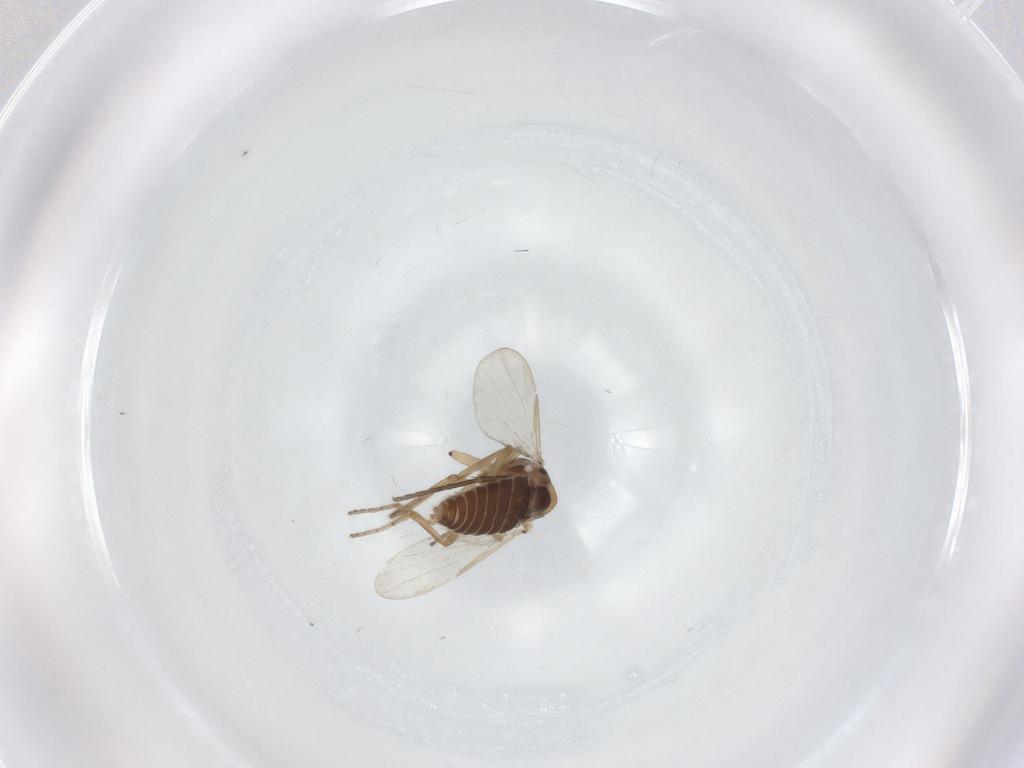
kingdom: Animalia
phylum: Arthropoda
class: Insecta
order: Diptera
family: Ceratopogonidae
